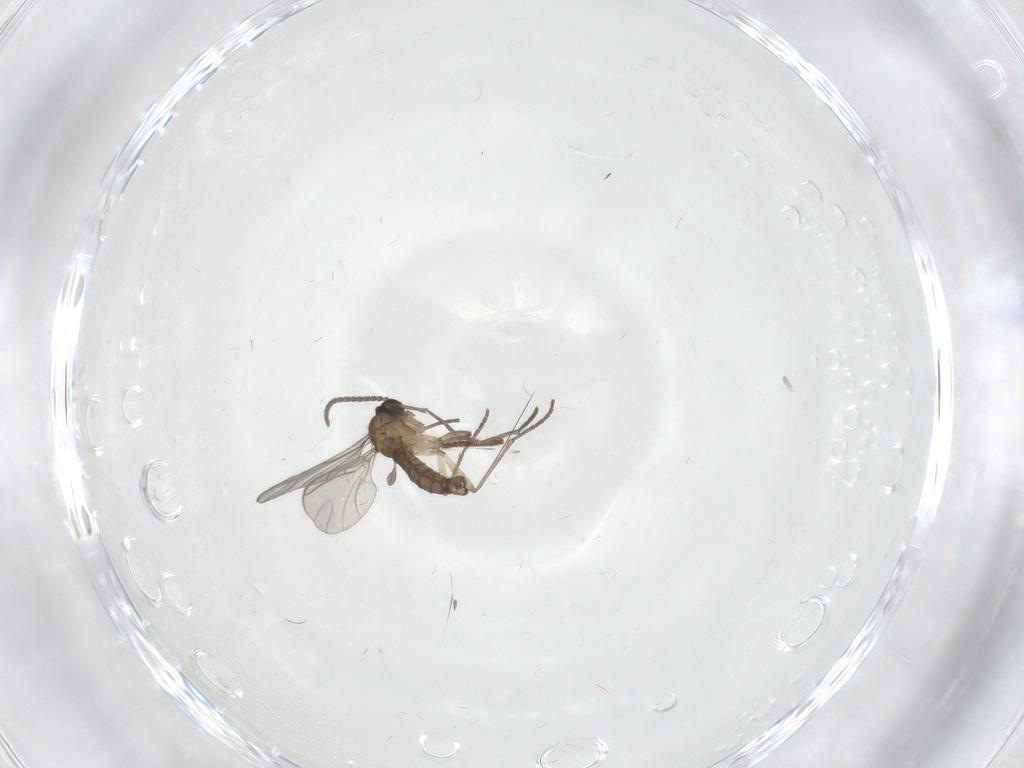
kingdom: Animalia
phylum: Arthropoda
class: Insecta
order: Diptera
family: Sciaridae
